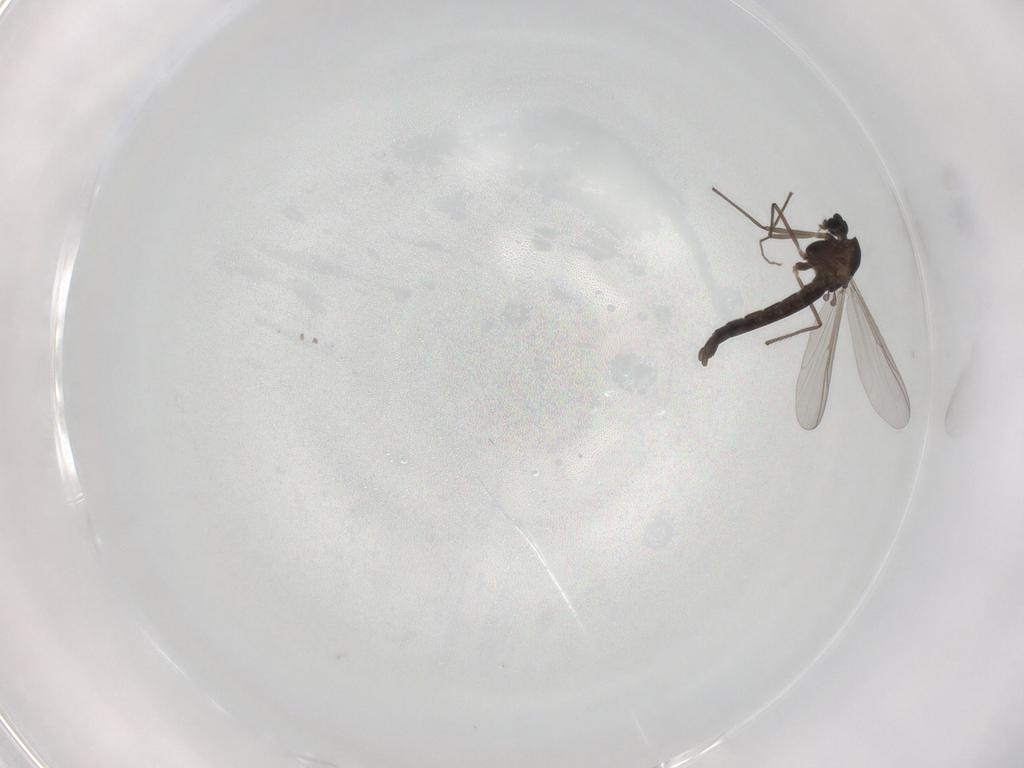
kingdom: Animalia
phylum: Arthropoda
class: Insecta
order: Diptera
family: Chironomidae
